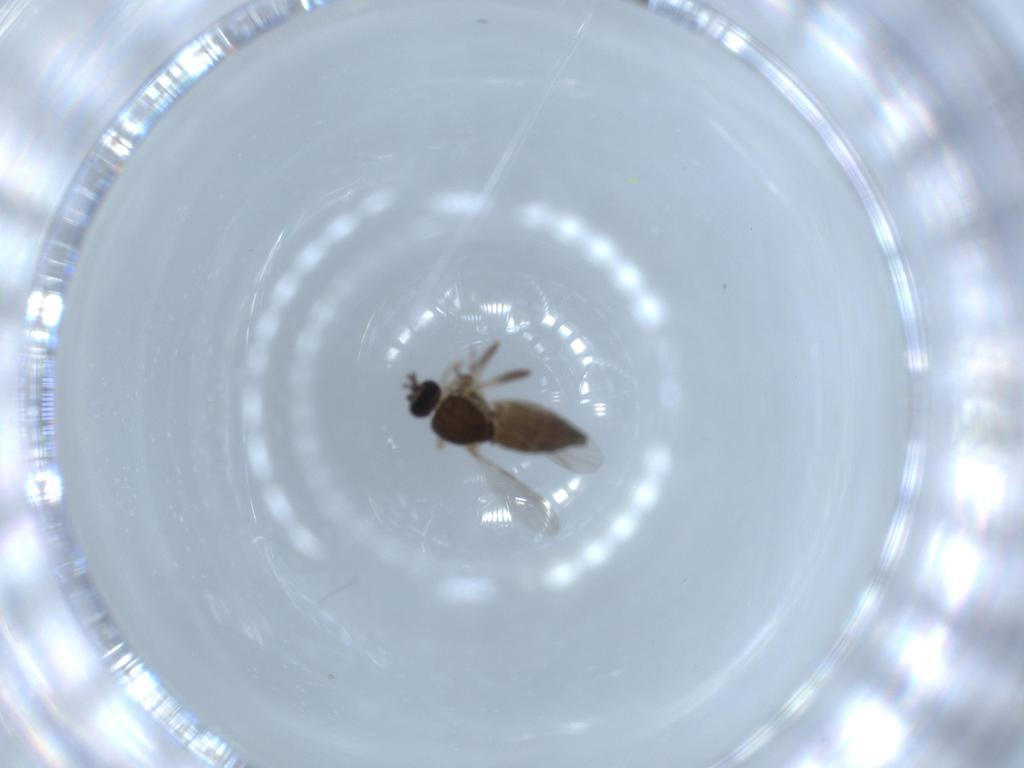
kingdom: Animalia
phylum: Arthropoda
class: Insecta
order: Diptera
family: Ceratopogonidae
